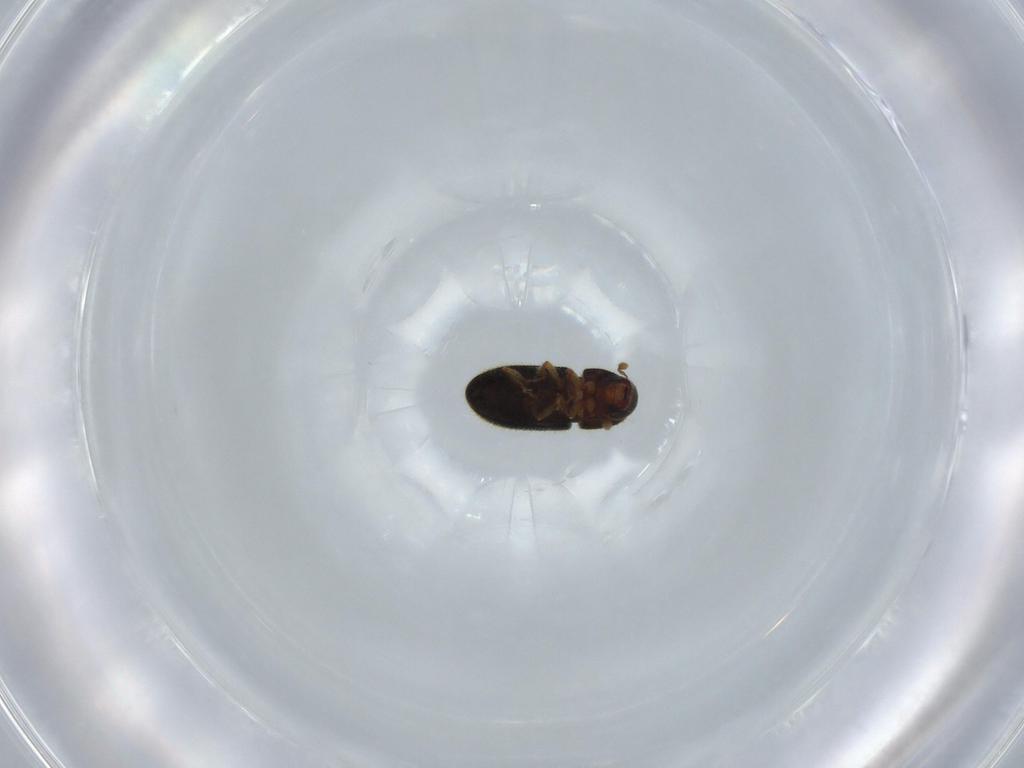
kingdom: Animalia
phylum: Arthropoda
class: Insecta
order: Coleoptera
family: Curculionidae
